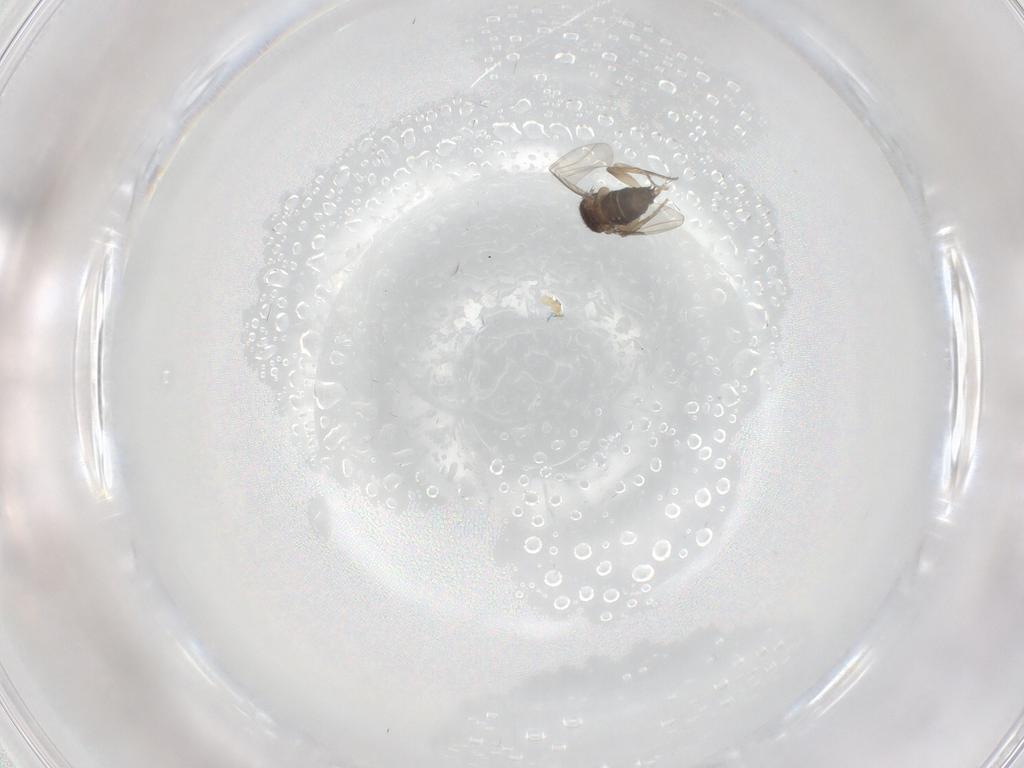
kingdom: Animalia
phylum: Arthropoda
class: Insecta
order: Diptera
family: Phoridae
